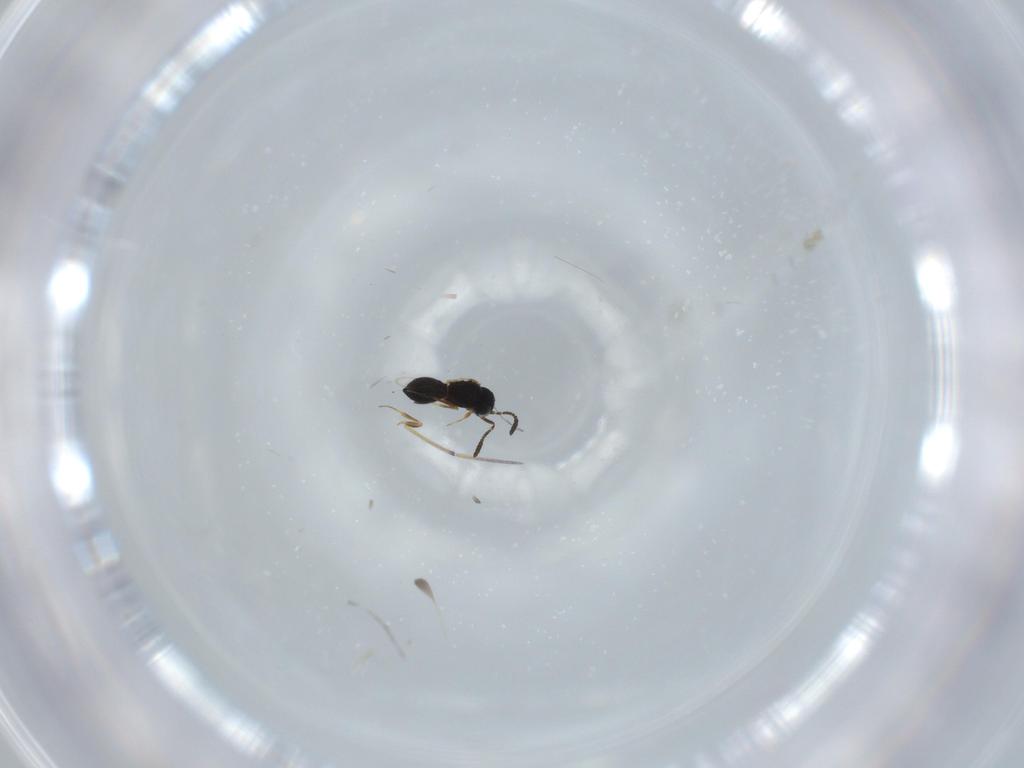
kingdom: Animalia
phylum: Arthropoda
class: Insecta
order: Hymenoptera
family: Scelionidae
